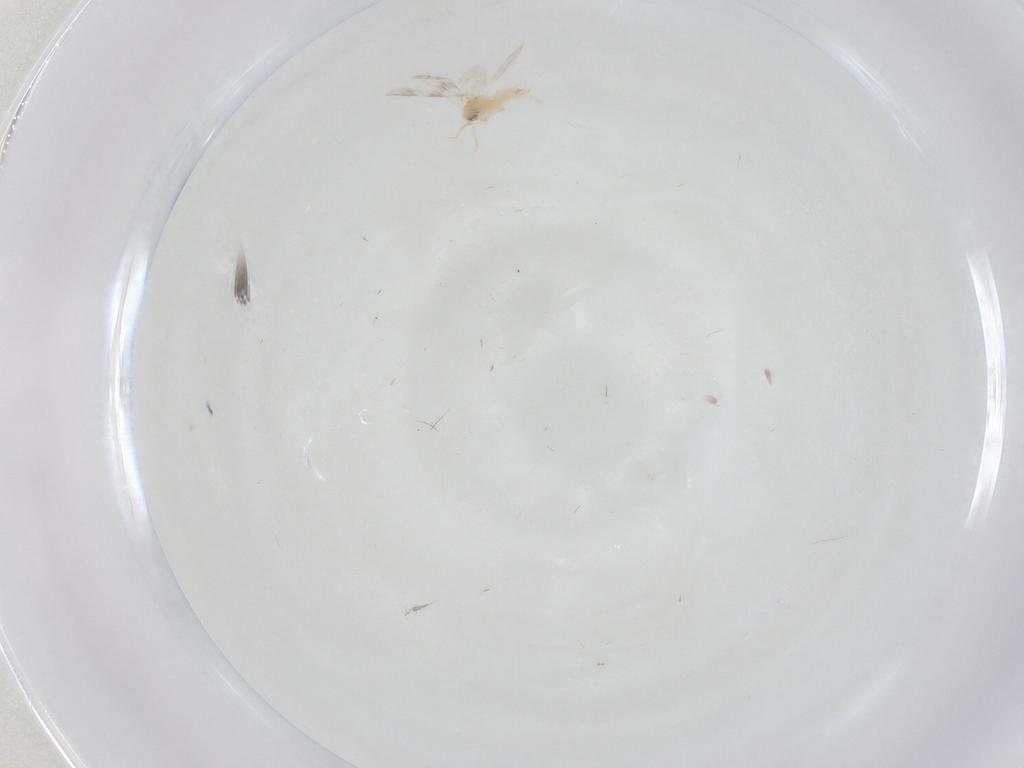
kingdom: Animalia
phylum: Arthropoda
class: Insecta
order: Hemiptera
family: Aleyrodidae
